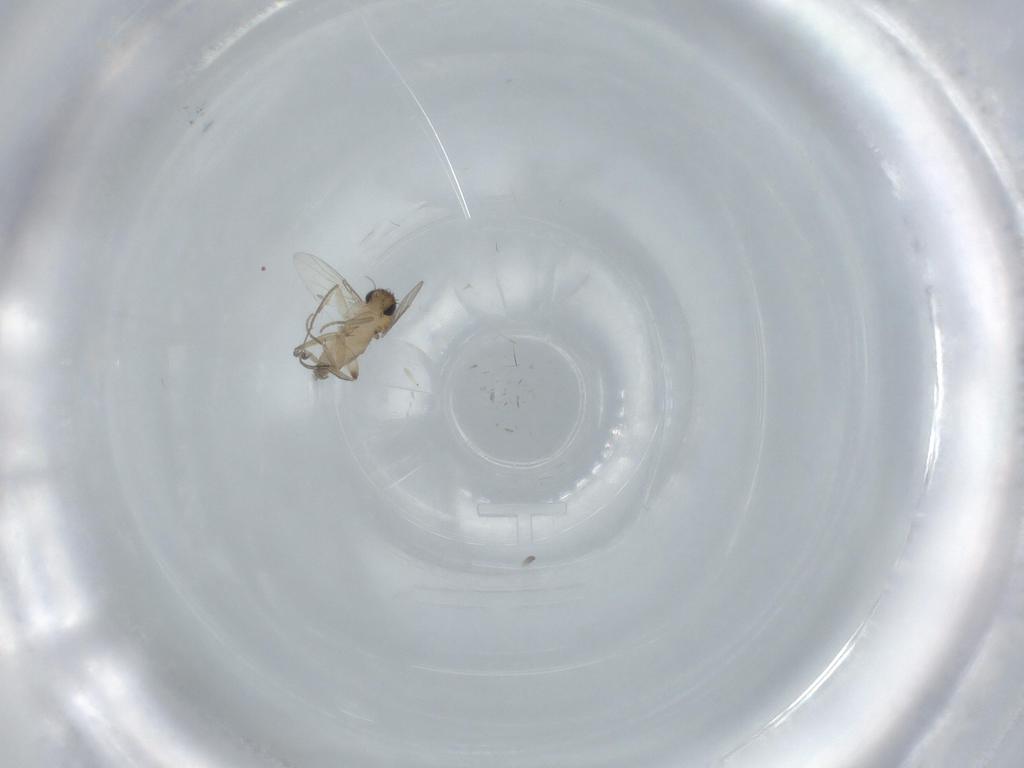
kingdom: Animalia
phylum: Arthropoda
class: Insecta
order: Diptera
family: Phoridae
